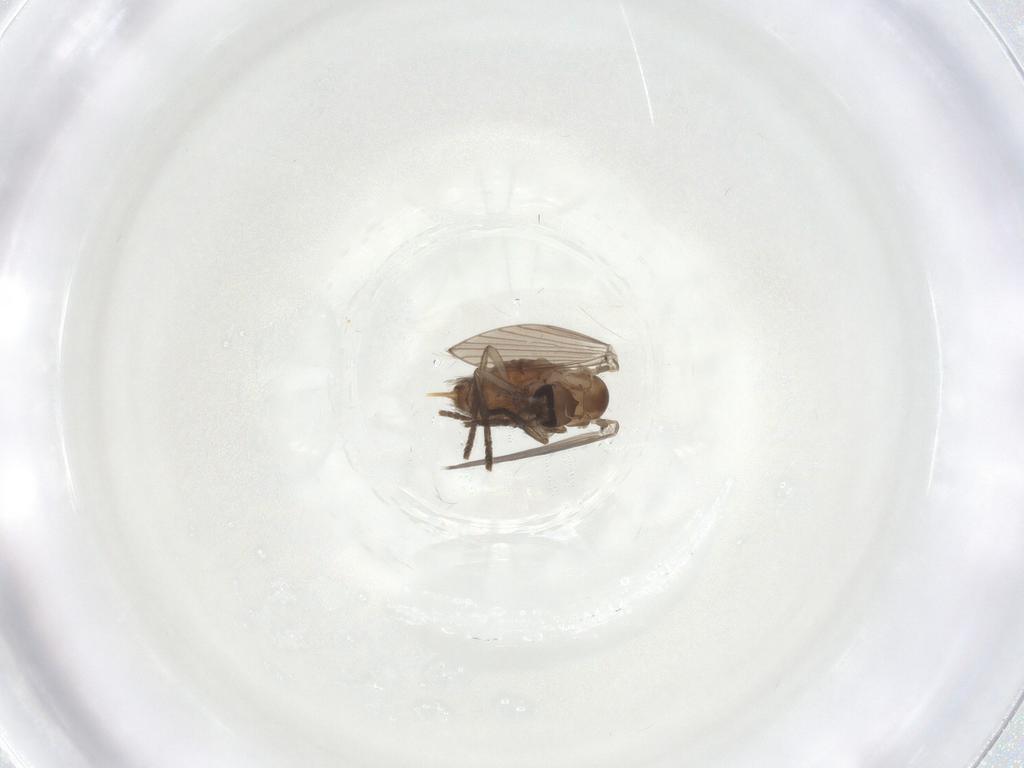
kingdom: Animalia
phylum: Arthropoda
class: Insecta
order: Diptera
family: Psychodidae
